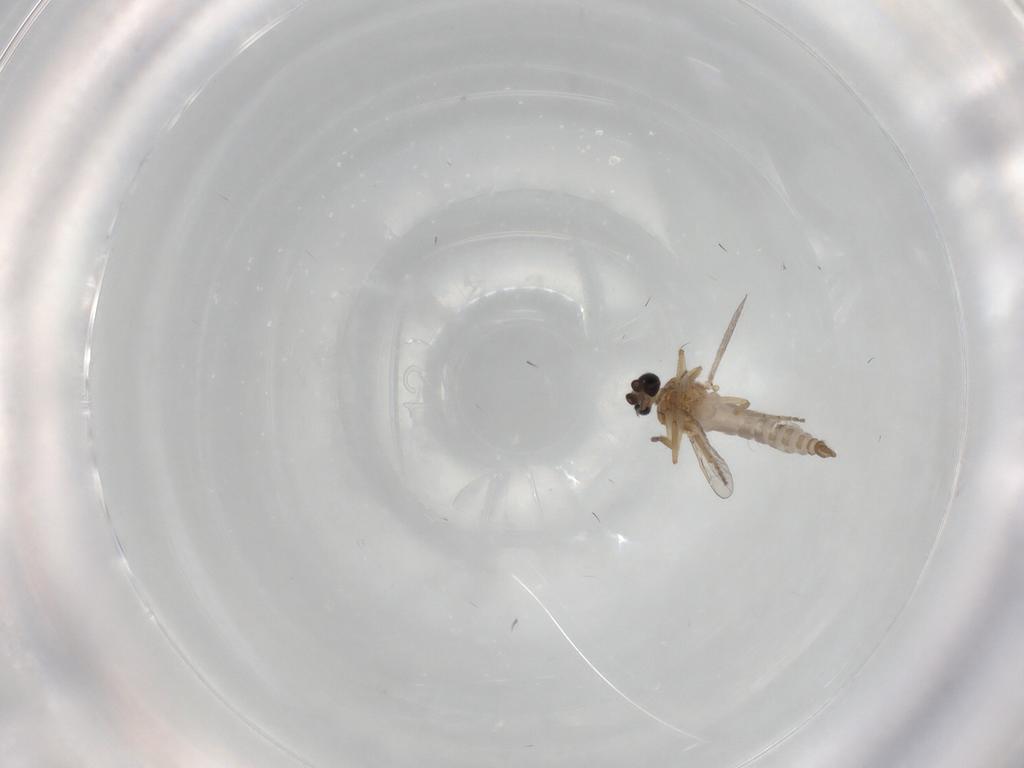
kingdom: Animalia
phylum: Arthropoda
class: Insecta
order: Diptera
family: Ceratopogonidae
